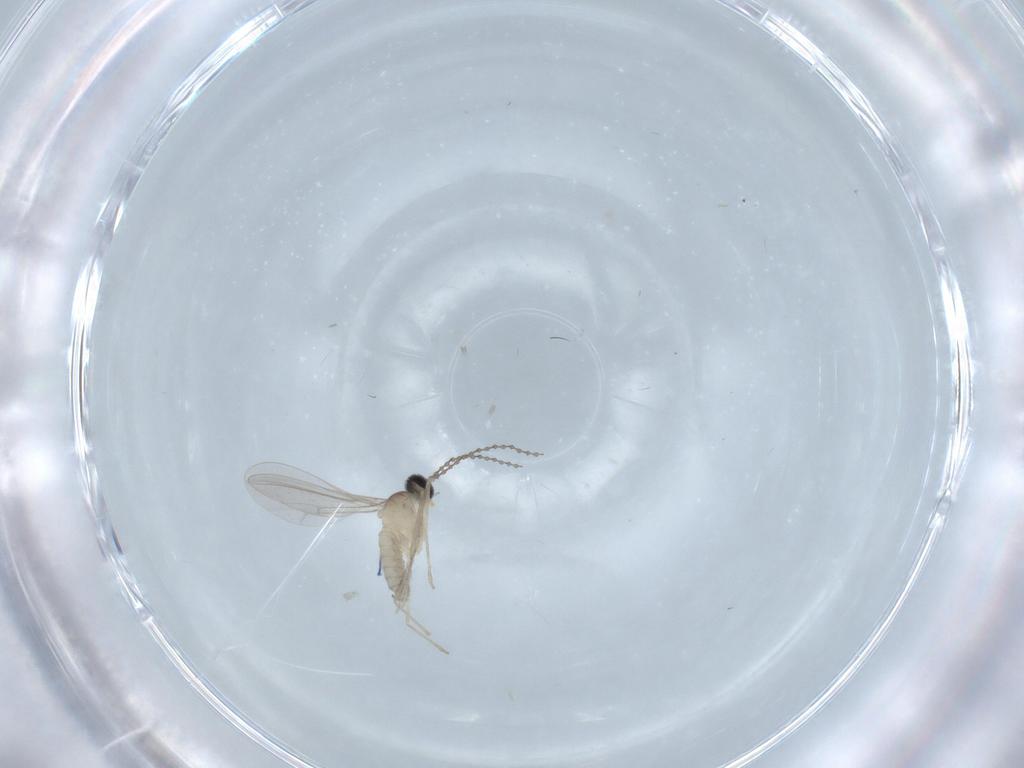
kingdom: Animalia
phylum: Arthropoda
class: Insecta
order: Diptera
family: Cecidomyiidae
